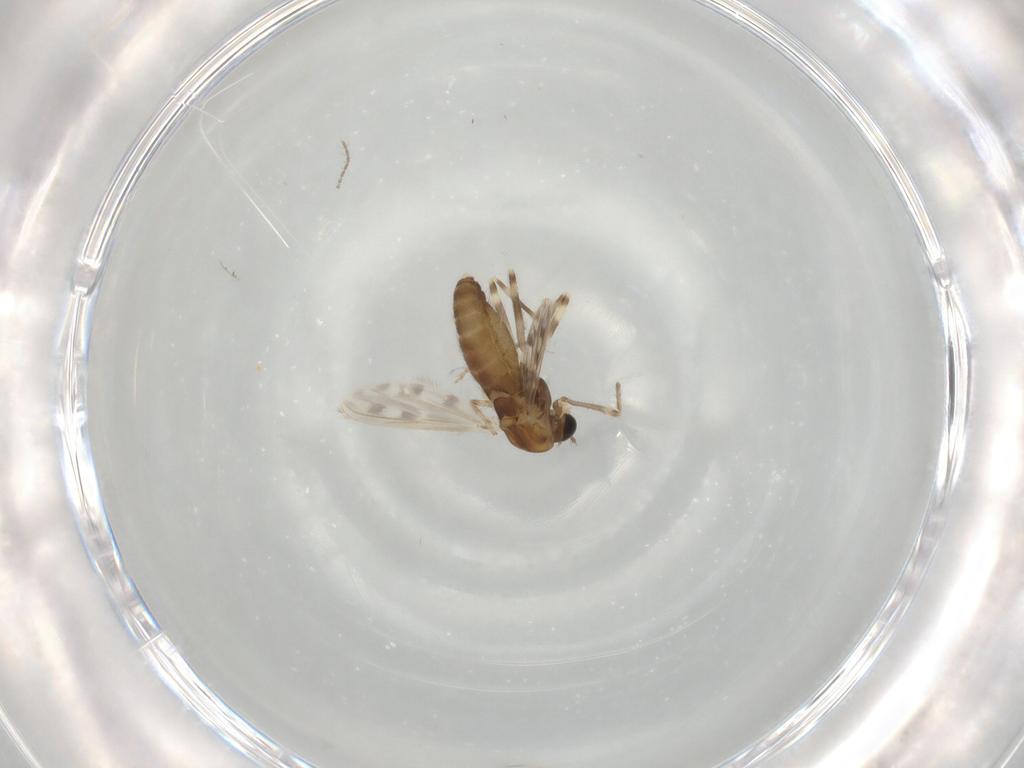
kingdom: Animalia
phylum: Arthropoda
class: Insecta
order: Diptera
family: Chironomidae
